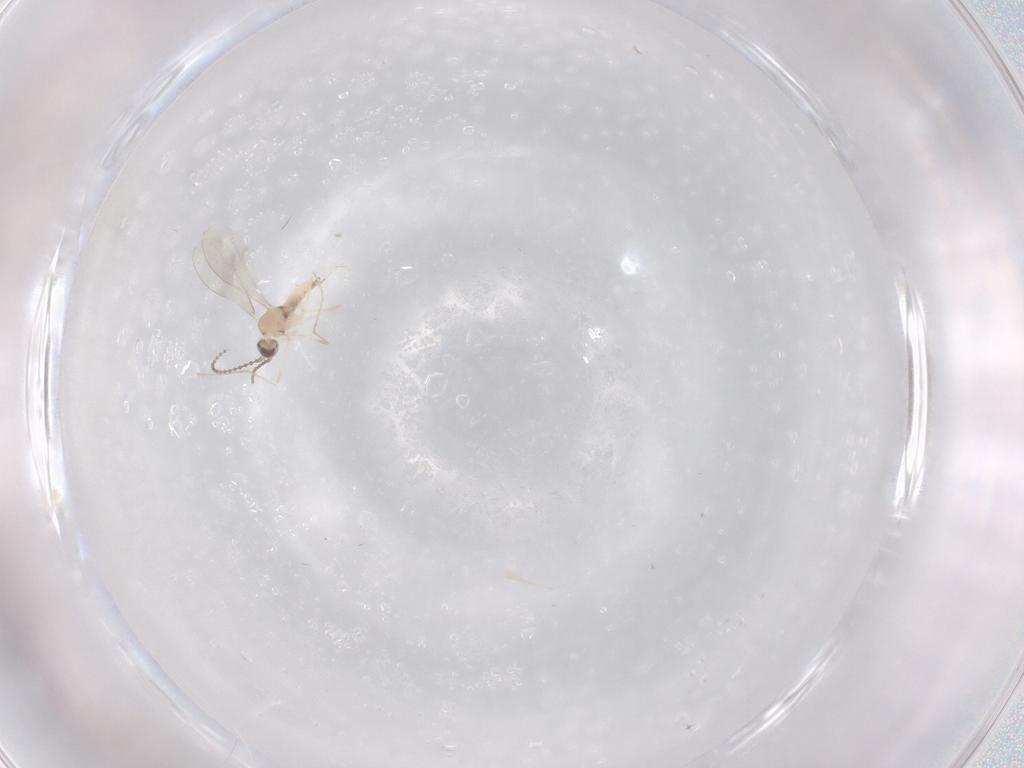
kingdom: Animalia
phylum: Arthropoda
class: Insecta
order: Diptera
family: Cecidomyiidae
